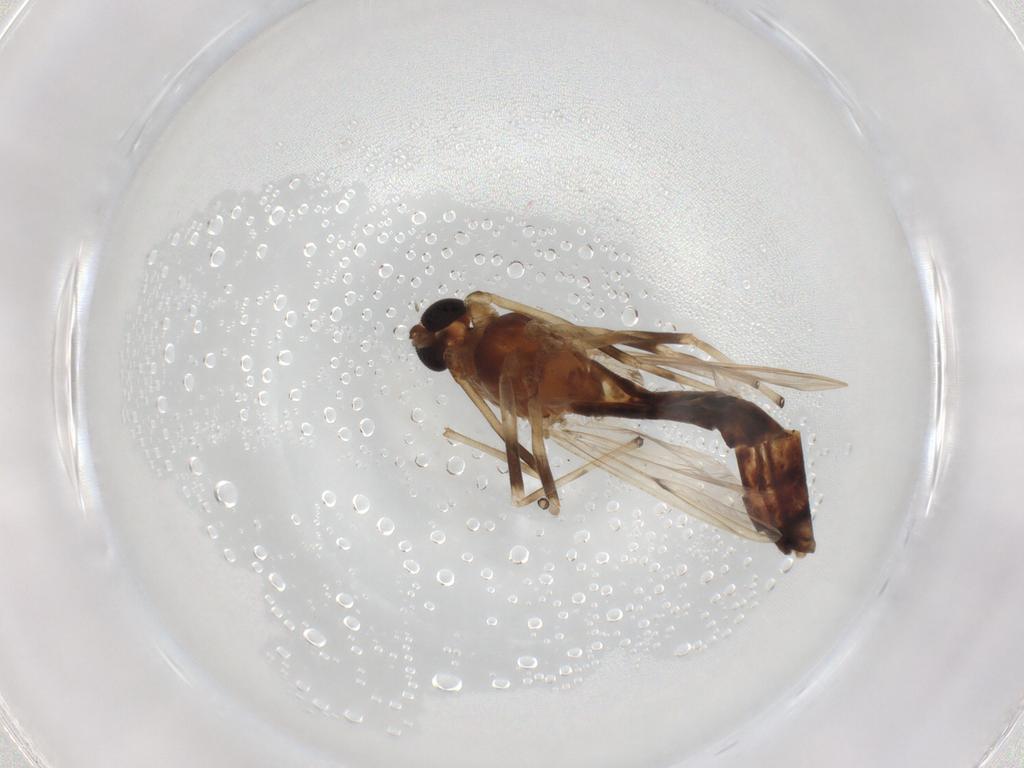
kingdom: Animalia
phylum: Arthropoda
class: Insecta
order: Diptera
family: Chironomidae
